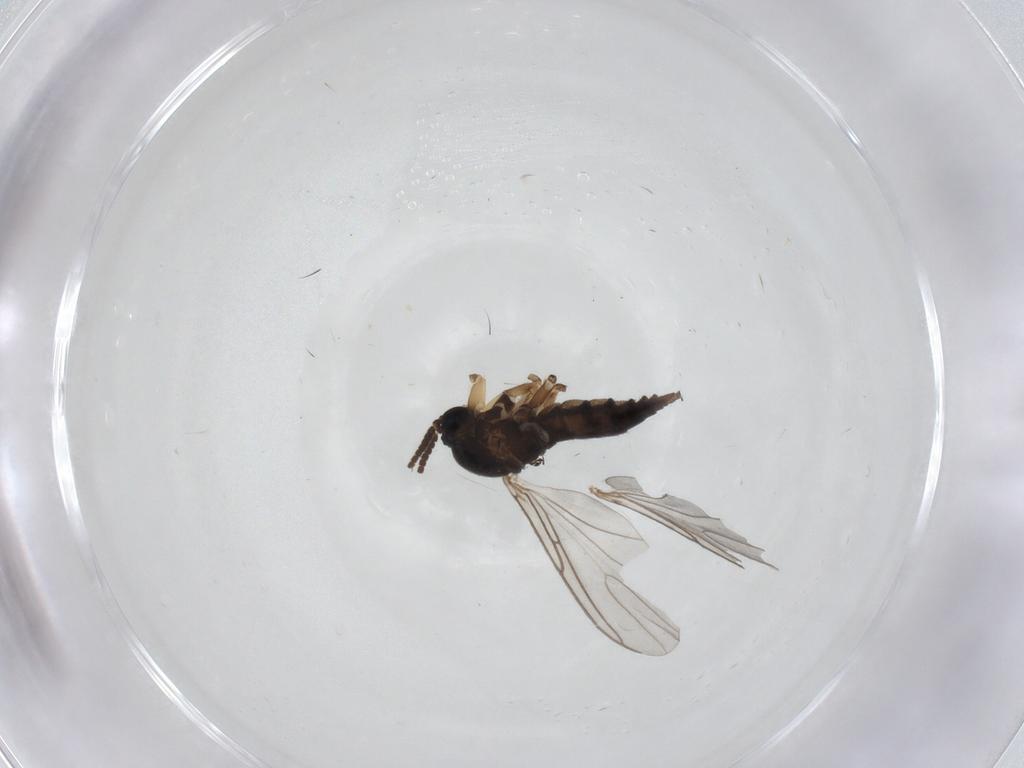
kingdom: Animalia
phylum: Arthropoda
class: Insecta
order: Diptera
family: Sciaridae
